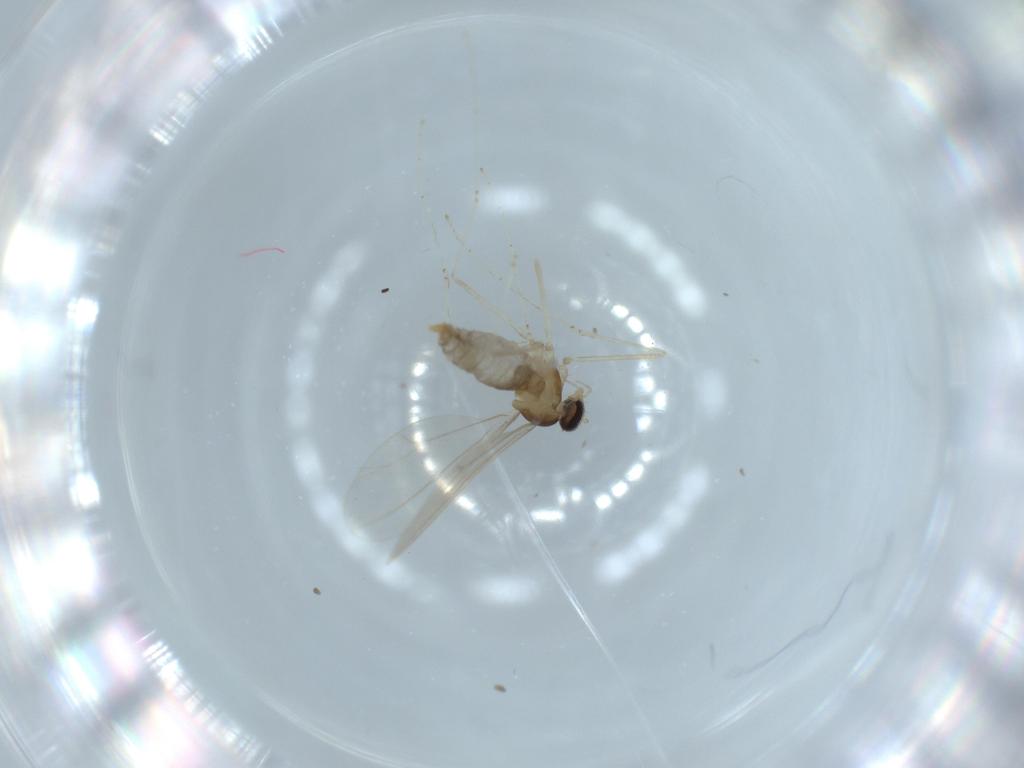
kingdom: Animalia
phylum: Arthropoda
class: Insecta
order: Diptera
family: Cecidomyiidae
